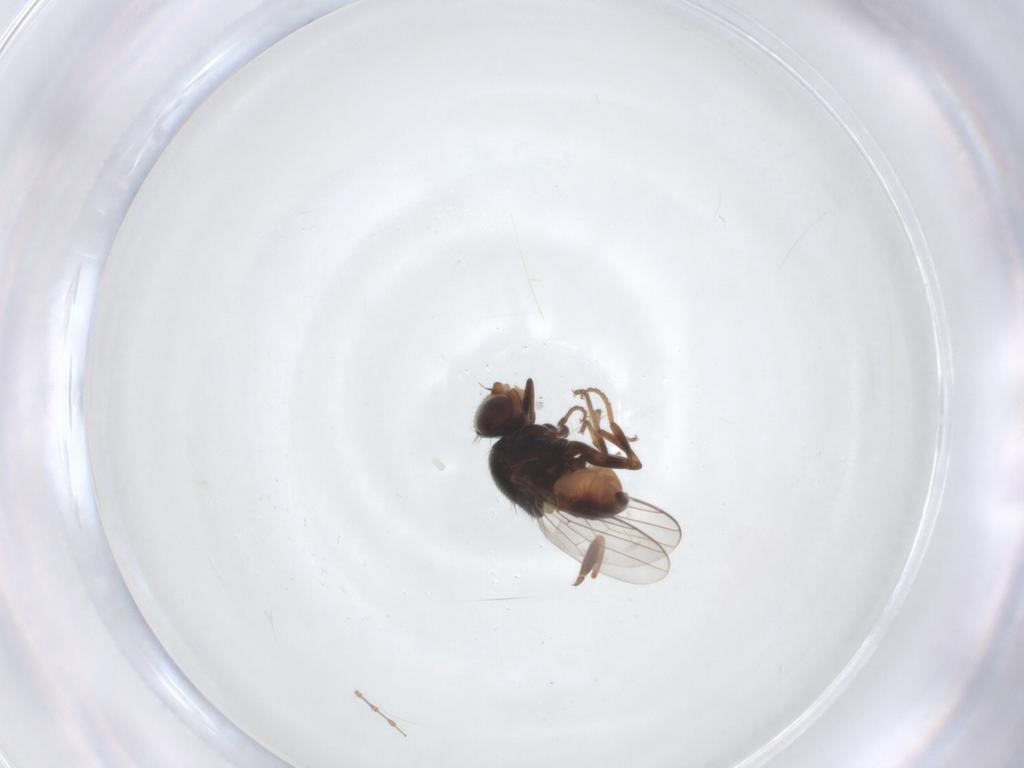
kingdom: Animalia
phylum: Arthropoda
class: Insecta
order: Diptera
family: Chloropidae
